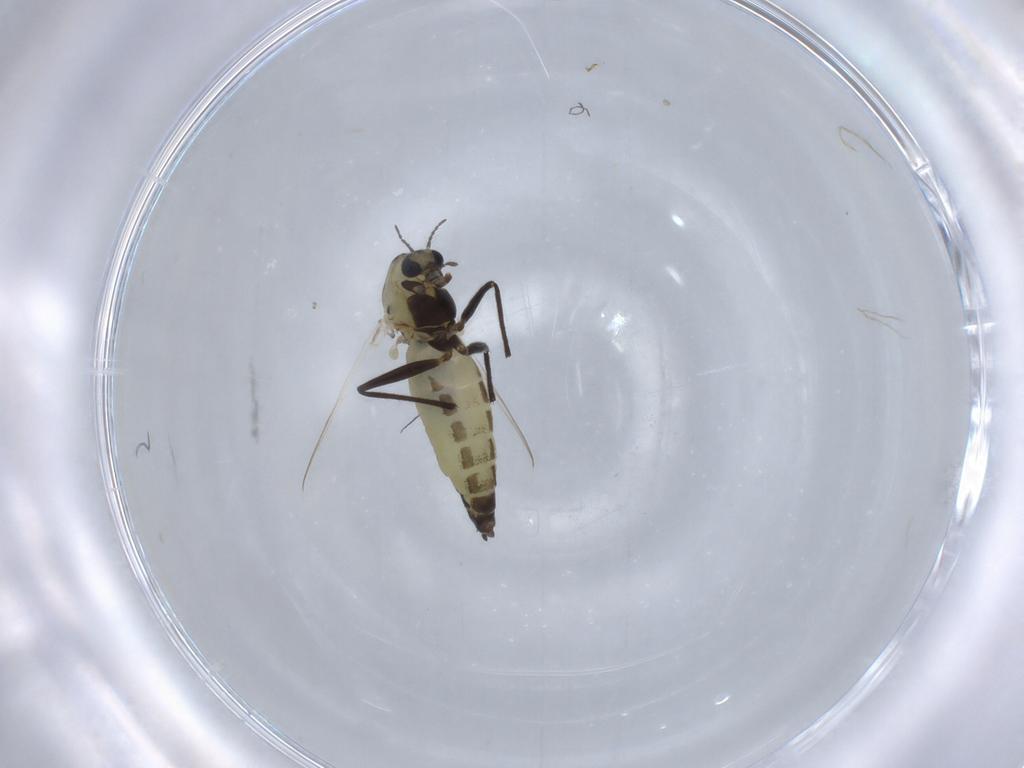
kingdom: Animalia
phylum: Arthropoda
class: Insecta
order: Diptera
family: Chironomidae
